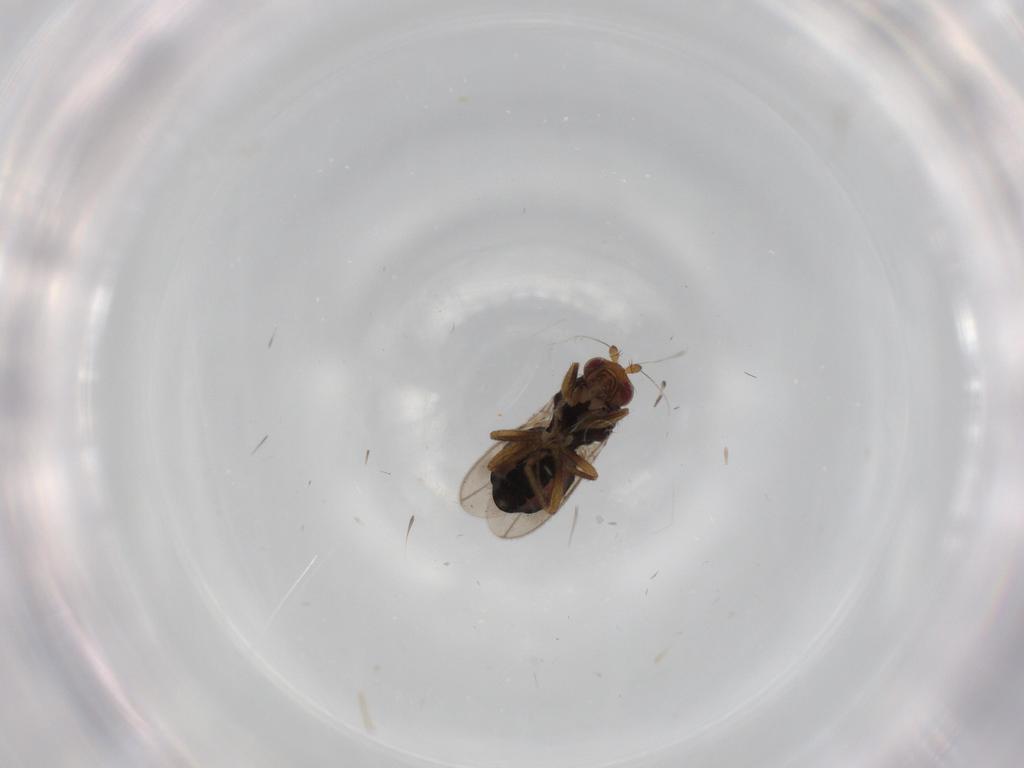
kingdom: Animalia
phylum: Arthropoda
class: Insecta
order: Diptera
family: Sphaeroceridae
